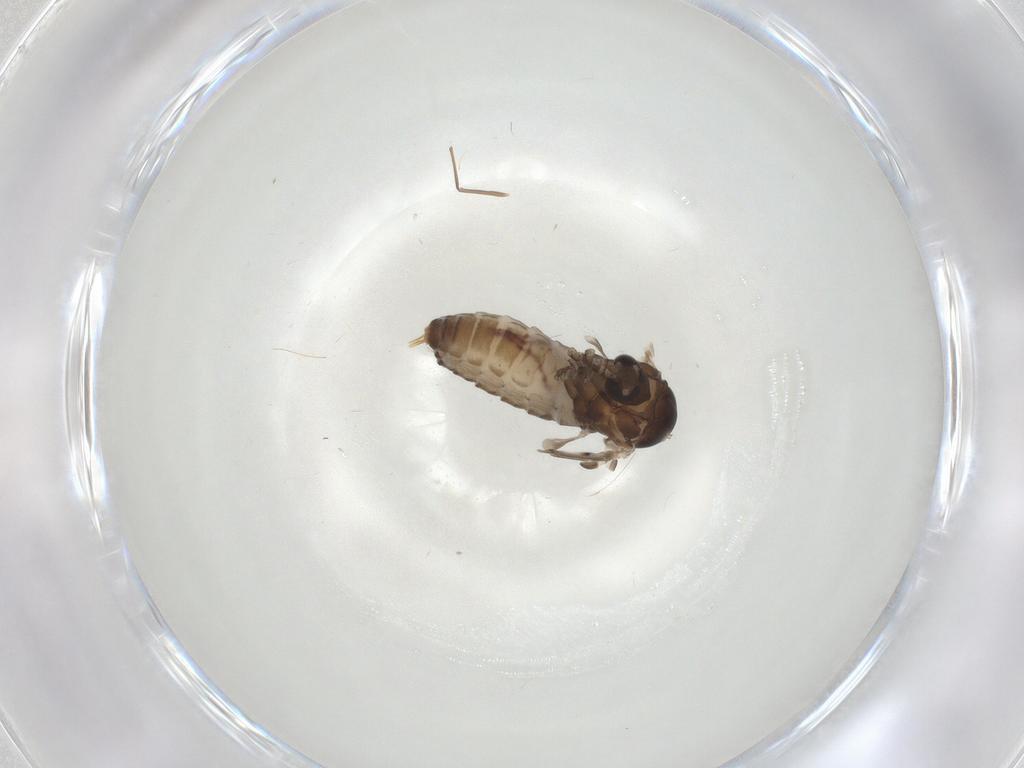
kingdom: Animalia
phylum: Arthropoda
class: Insecta
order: Diptera
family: Psychodidae
